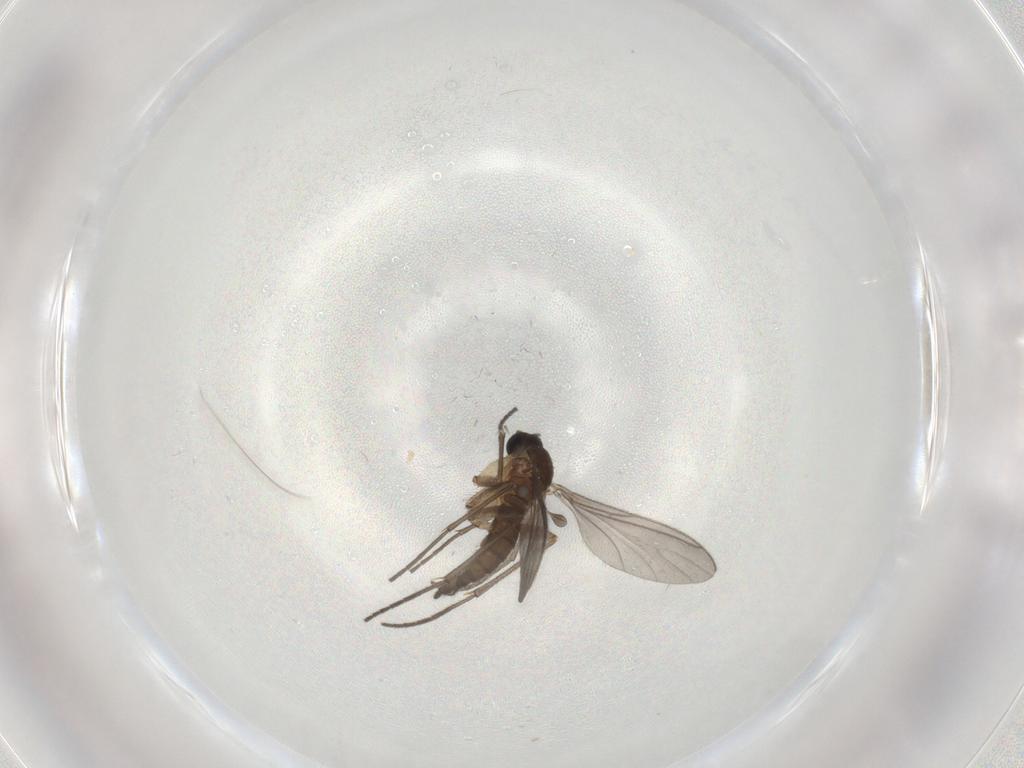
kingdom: Animalia
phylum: Arthropoda
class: Insecta
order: Diptera
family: Sciaridae
